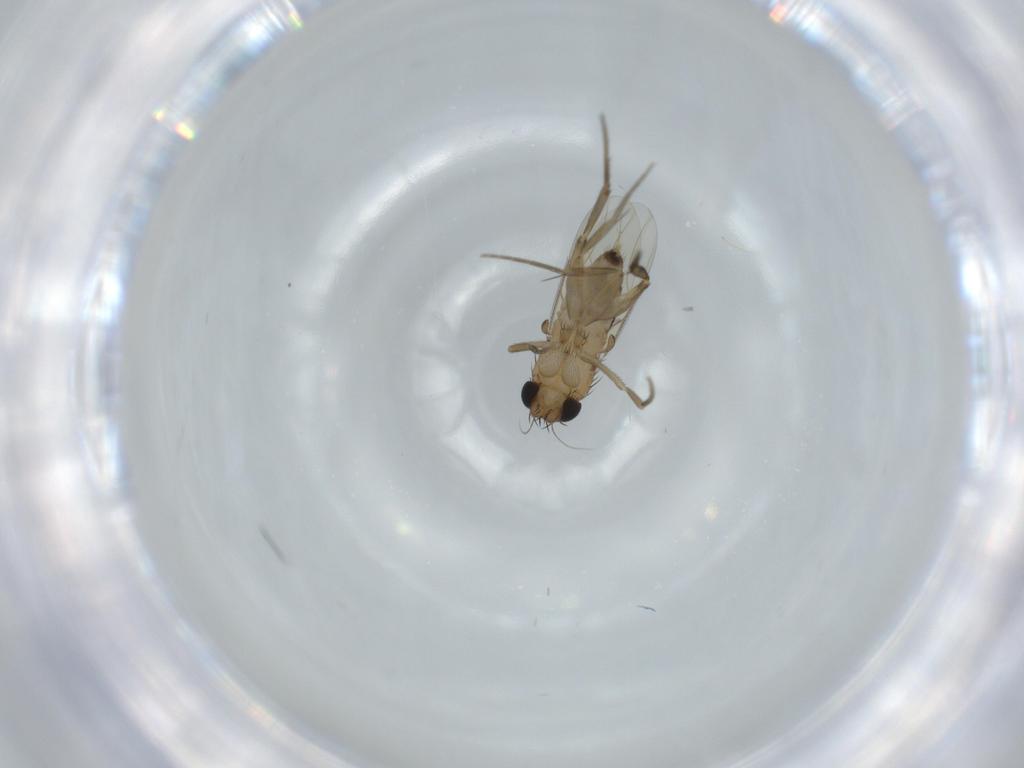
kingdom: Animalia
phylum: Arthropoda
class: Insecta
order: Diptera
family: Phoridae
